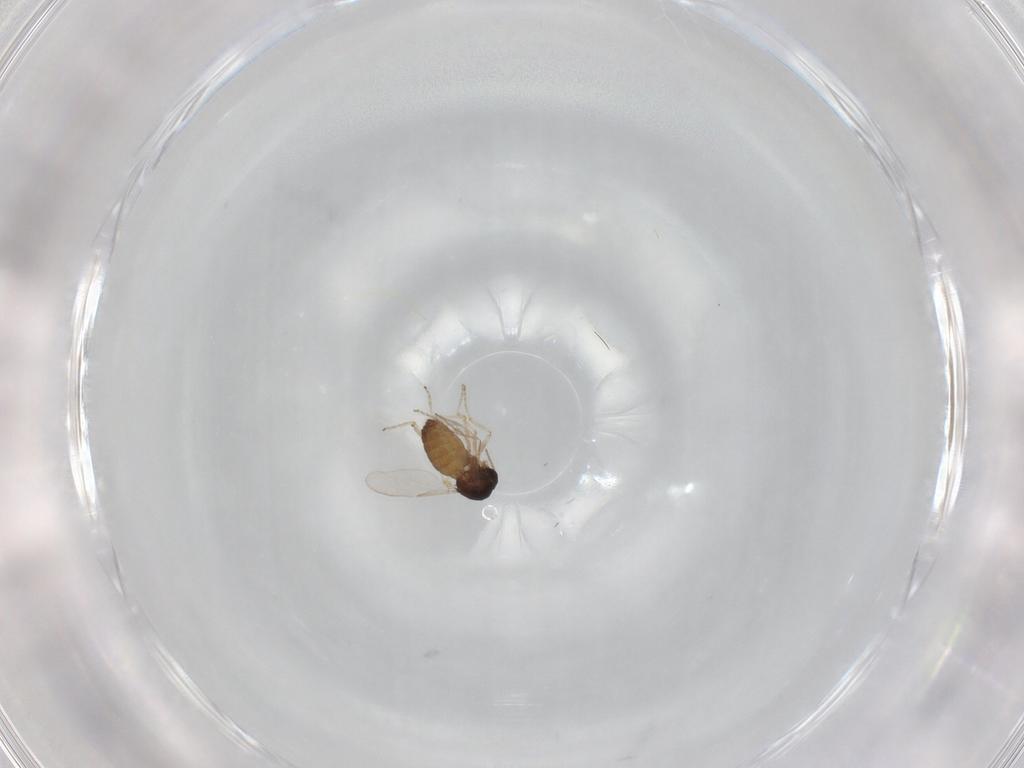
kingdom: Animalia
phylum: Arthropoda
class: Insecta
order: Diptera
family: Ceratopogonidae
